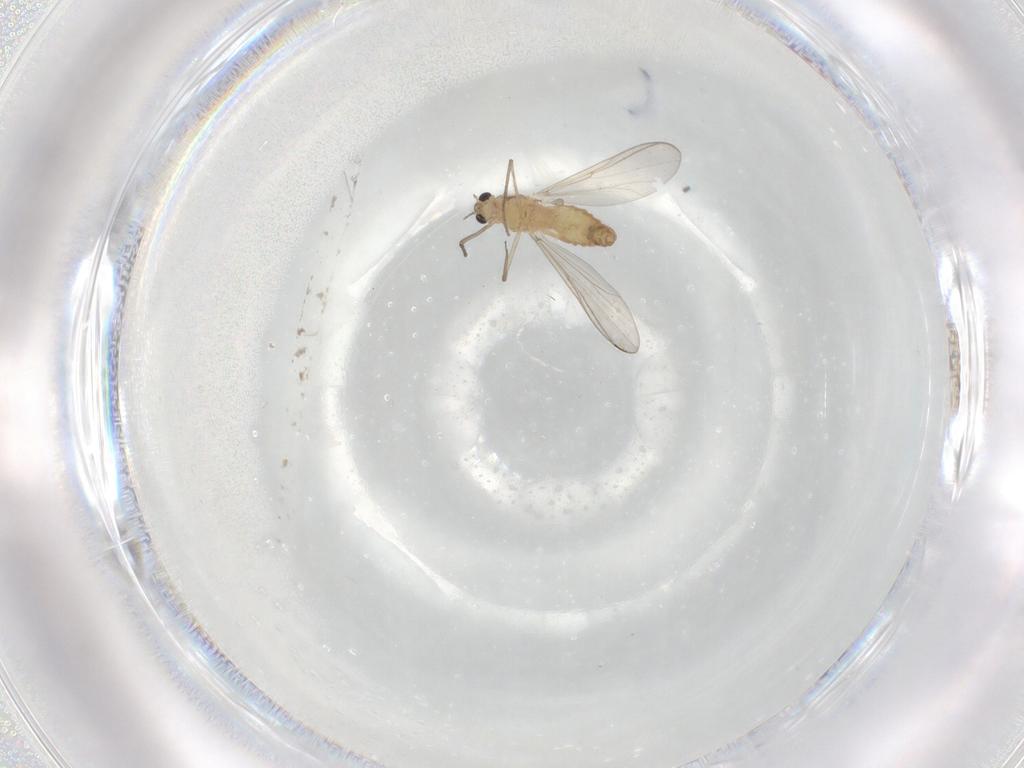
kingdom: Animalia
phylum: Arthropoda
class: Insecta
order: Diptera
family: Chironomidae
